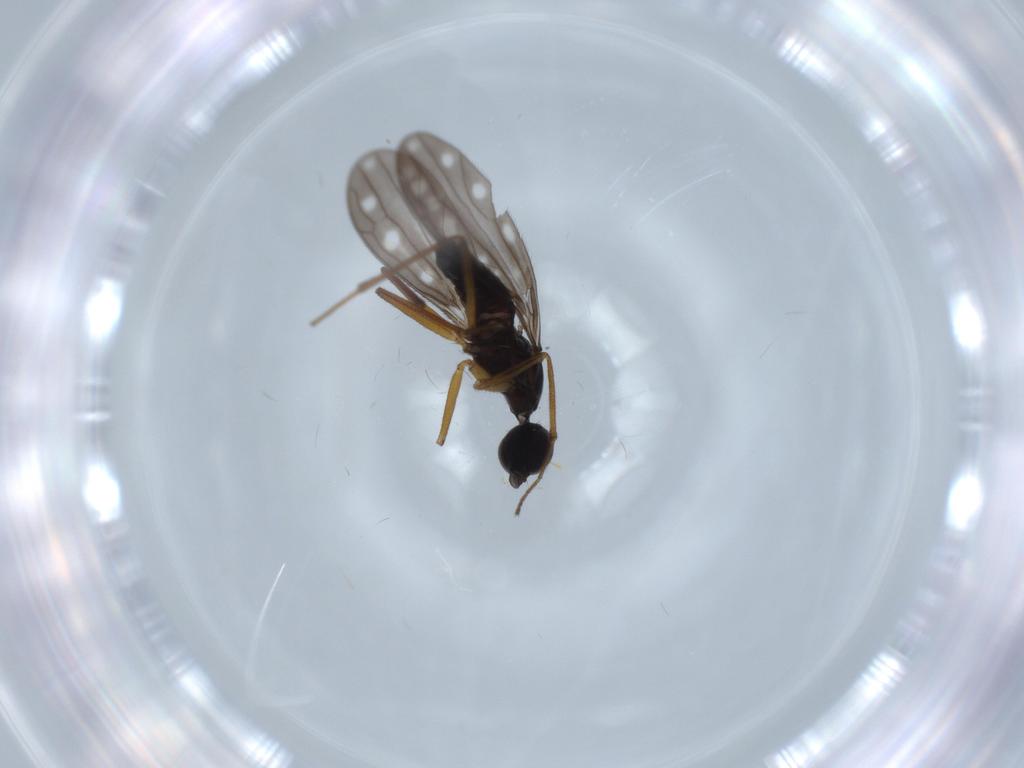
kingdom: Animalia
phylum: Arthropoda
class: Insecta
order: Diptera
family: Empididae
